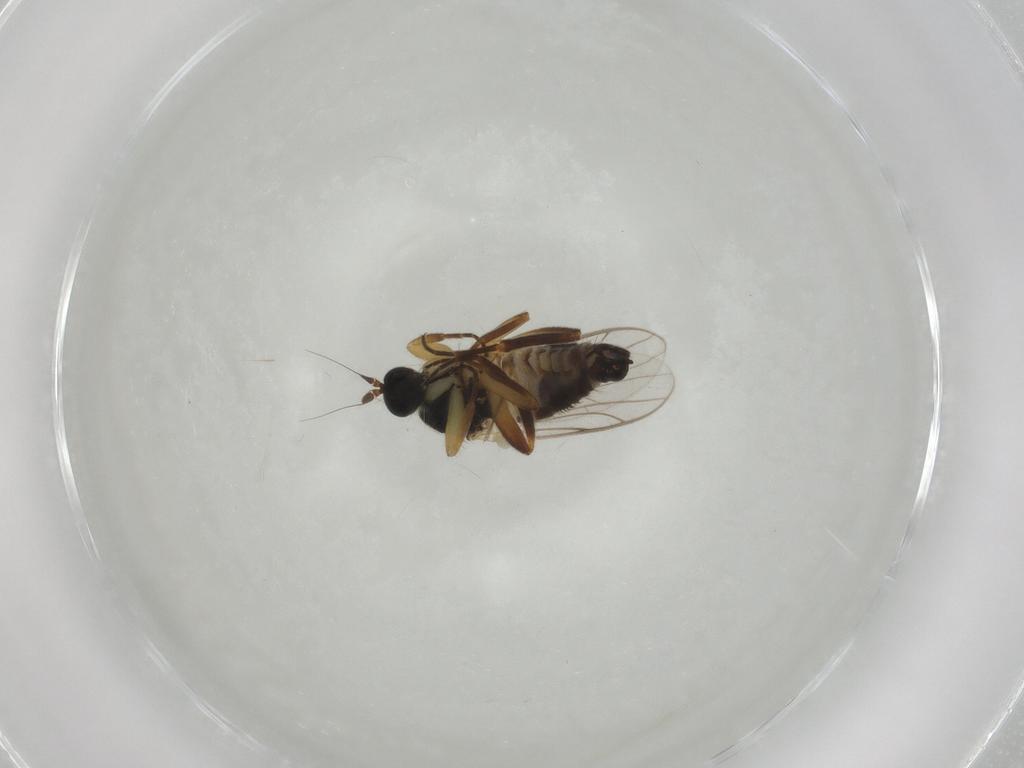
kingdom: Animalia
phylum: Arthropoda
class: Insecta
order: Diptera
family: Hybotidae
